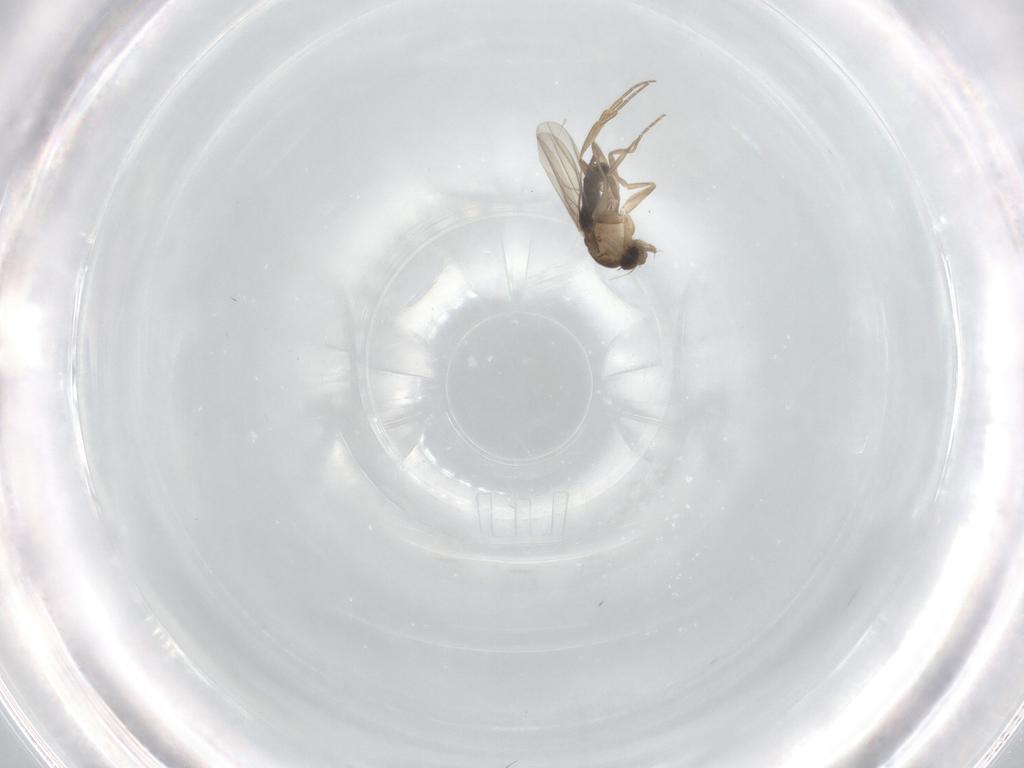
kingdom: Animalia
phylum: Arthropoda
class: Insecta
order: Diptera
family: Phoridae
